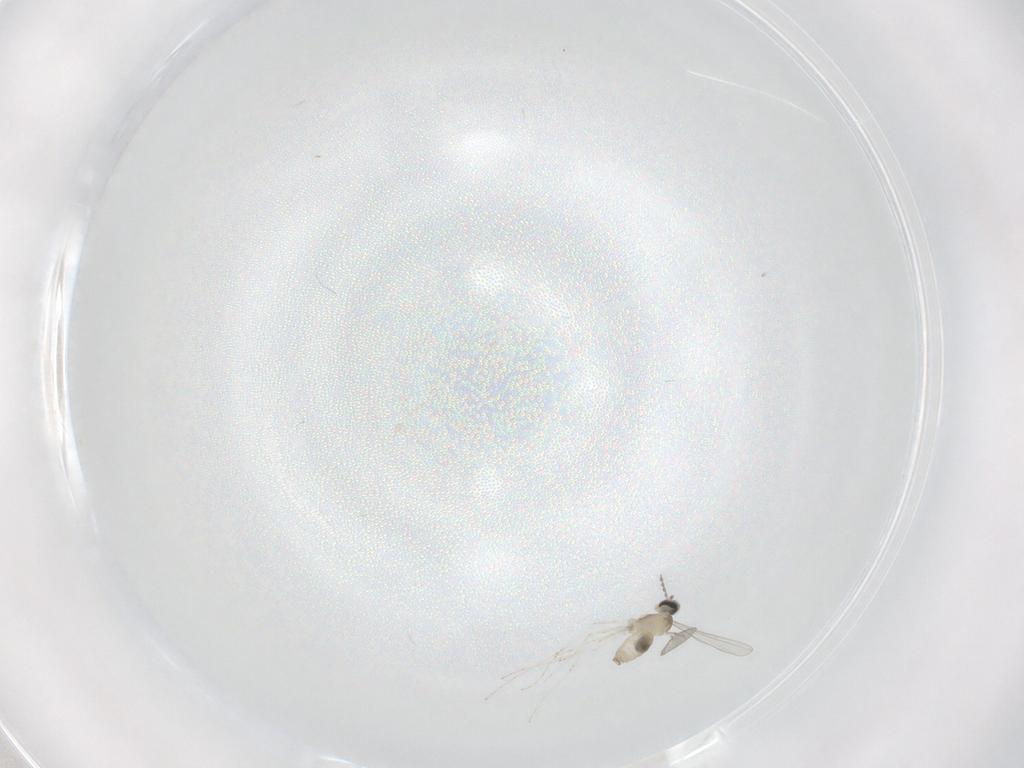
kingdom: Animalia
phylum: Arthropoda
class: Insecta
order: Diptera
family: Cecidomyiidae
